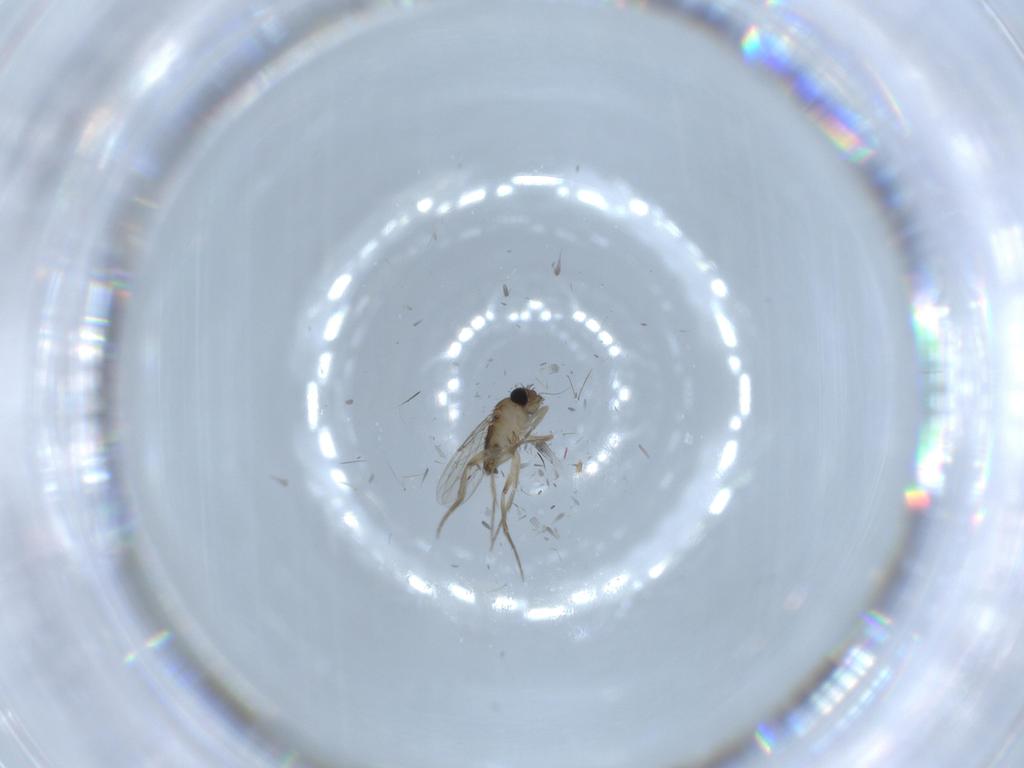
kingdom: Animalia
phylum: Arthropoda
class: Insecta
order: Diptera
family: Phoridae
